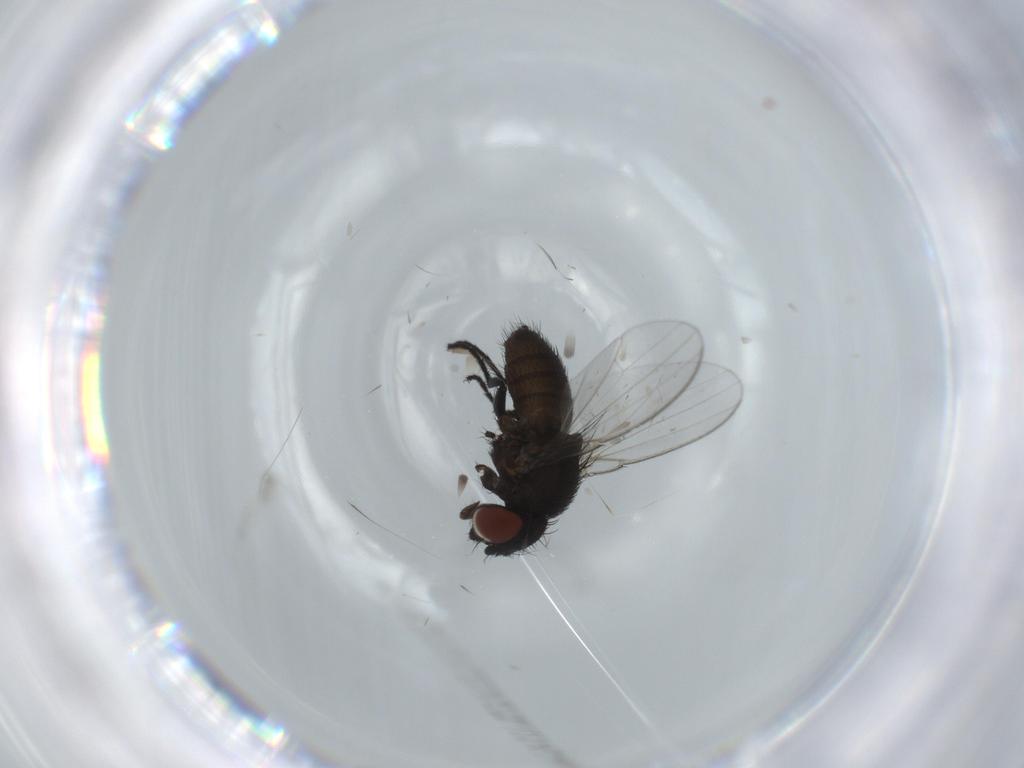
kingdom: Animalia
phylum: Arthropoda
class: Insecta
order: Diptera
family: Milichiidae
